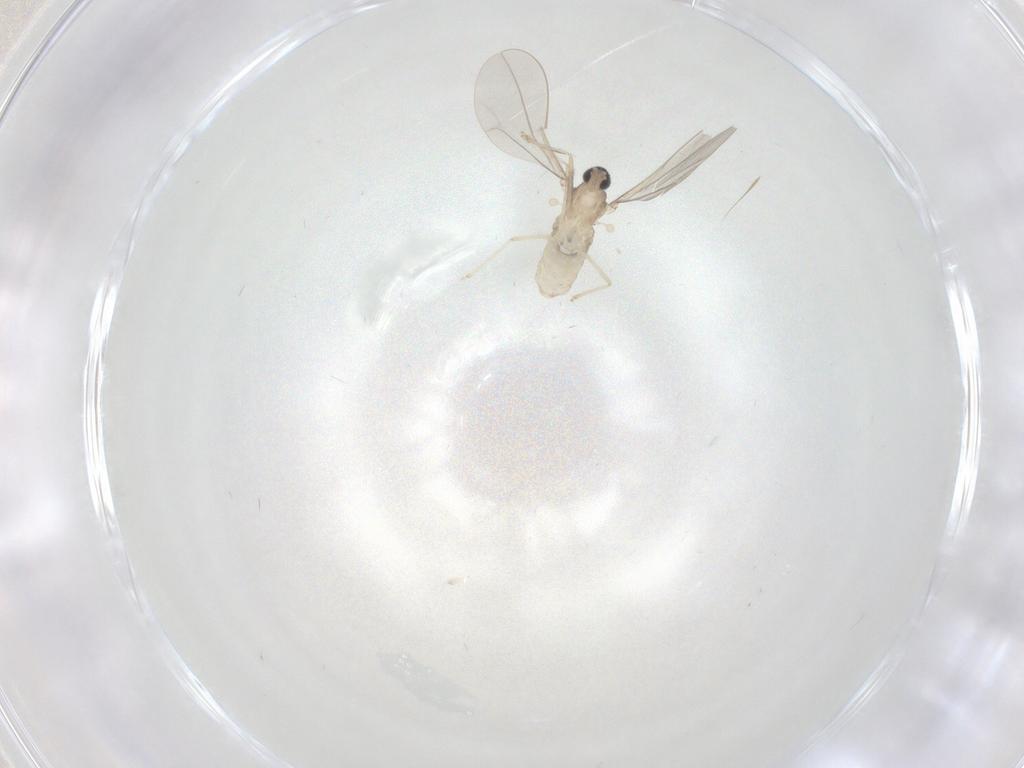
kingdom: Animalia
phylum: Arthropoda
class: Insecta
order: Diptera
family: Cecidomyiidae
